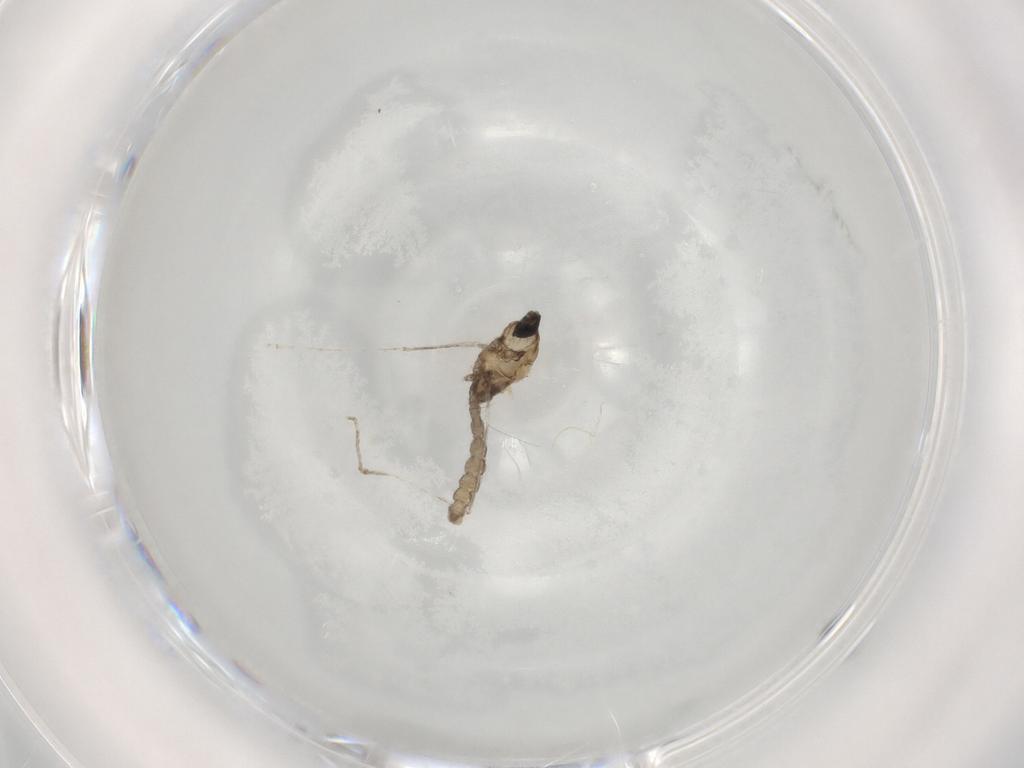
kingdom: Animalia
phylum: Arthropoda
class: Insecta
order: Diptera
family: Cecidomyiidae
